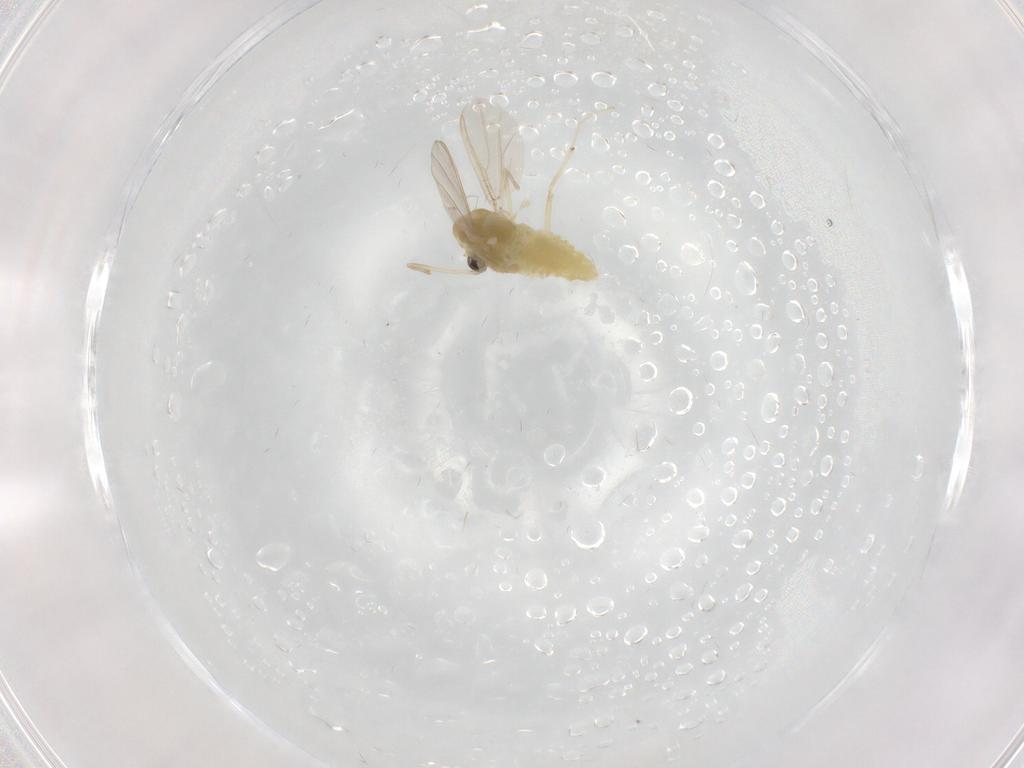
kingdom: Animalia
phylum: Arthropoda
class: Insecta
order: Diptera
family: Chironomidae
